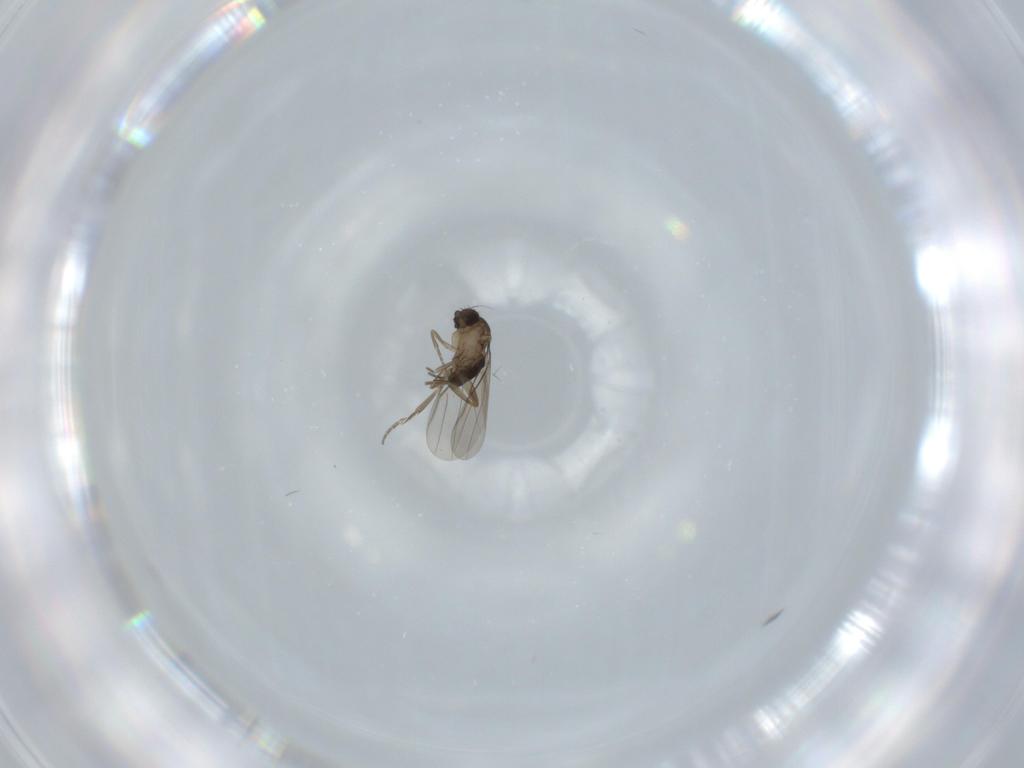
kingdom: Animalia
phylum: Arthropoda
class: Insecta
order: Diptera
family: Phoridae
